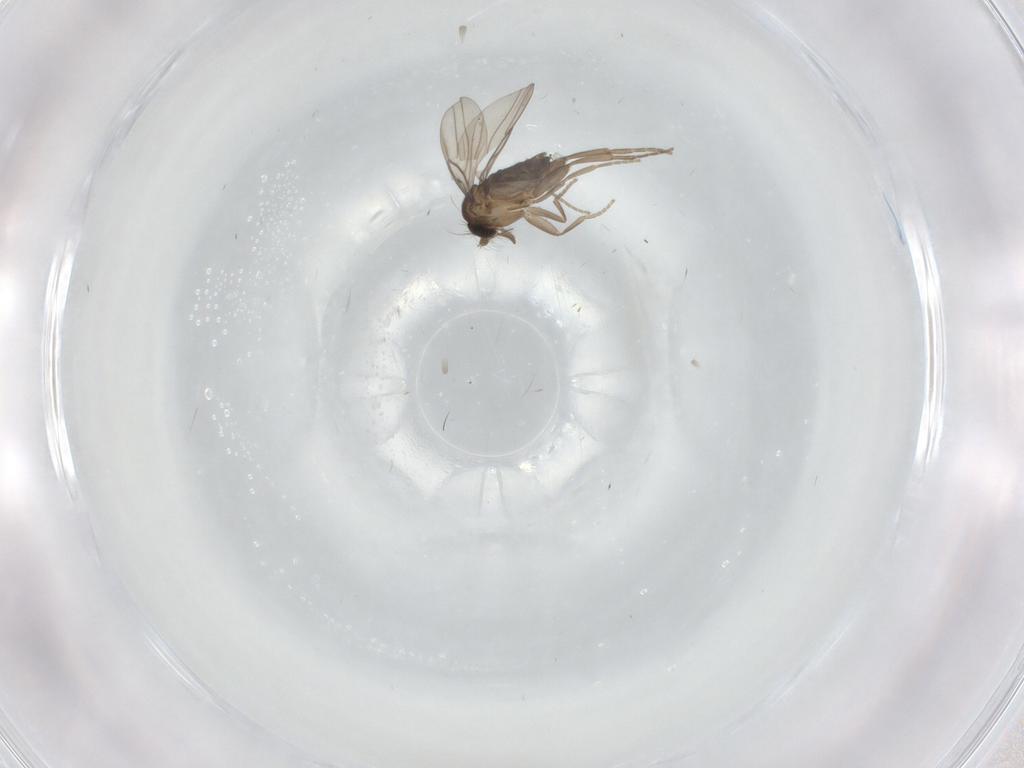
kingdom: Animalia
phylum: Arthropoda
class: Insecta
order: Diptera
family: Chironomidae
